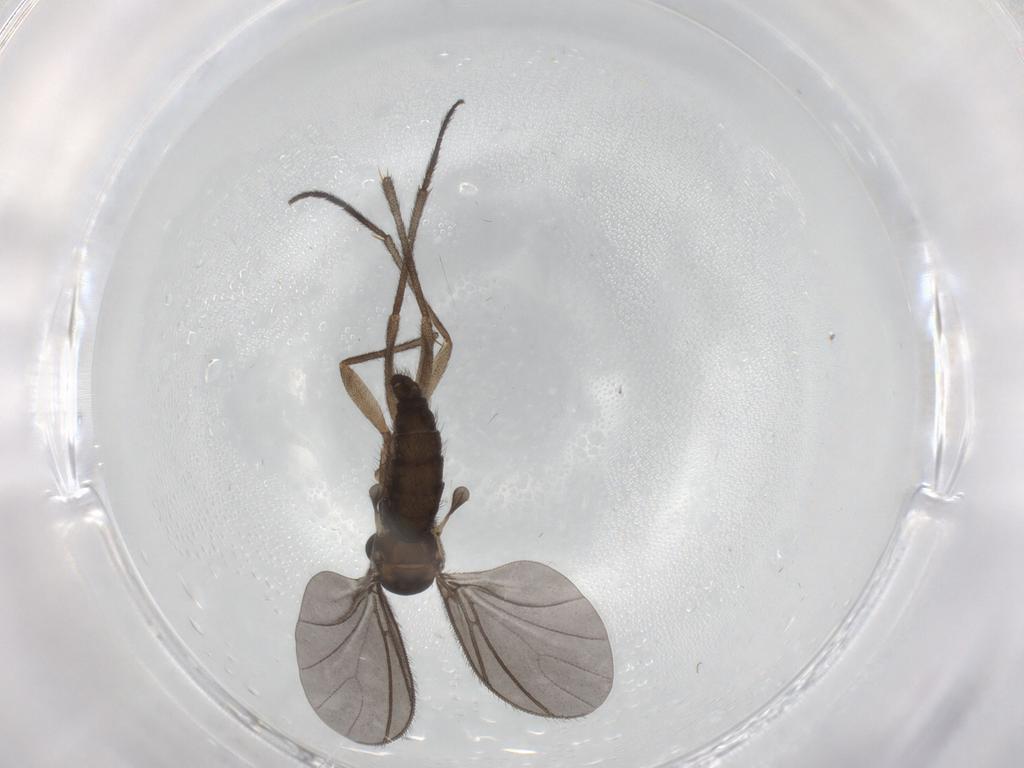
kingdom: Animalia
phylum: Arthropoda
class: Insecta
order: Diptera
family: Sciaridae
